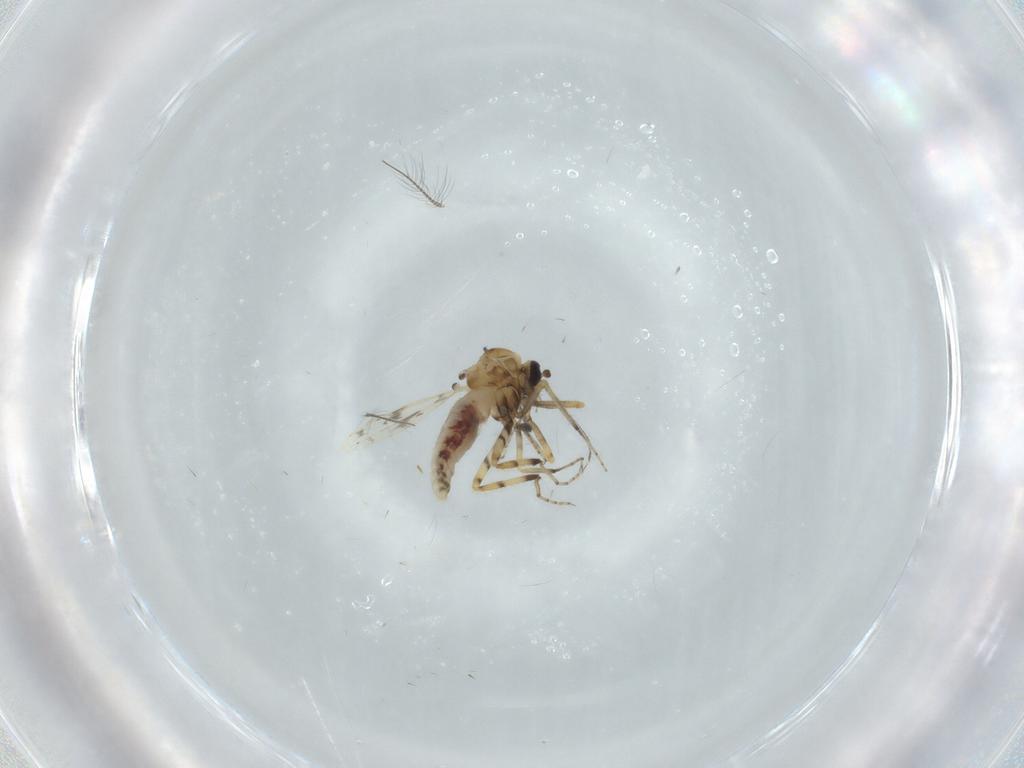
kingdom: Animalia
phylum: Arthropoda
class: Insecta
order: Diptera
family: Sciaridae
